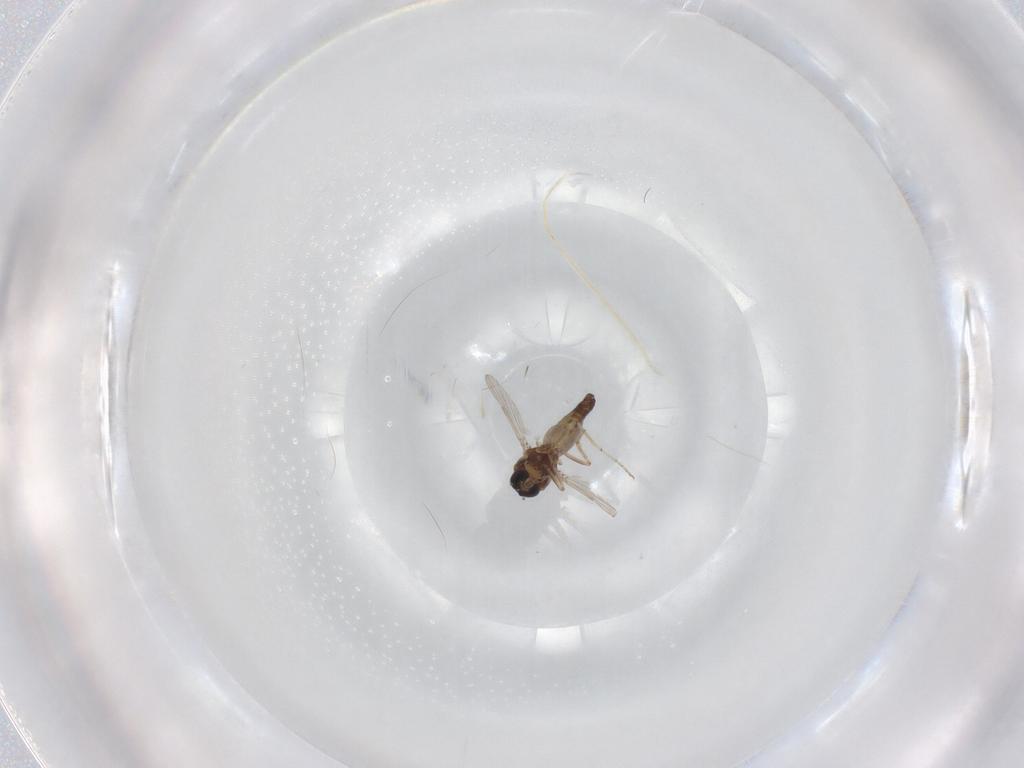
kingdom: Animalia
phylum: Arthropoda
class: Insecta
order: Diptera
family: Ceratopogonidae
